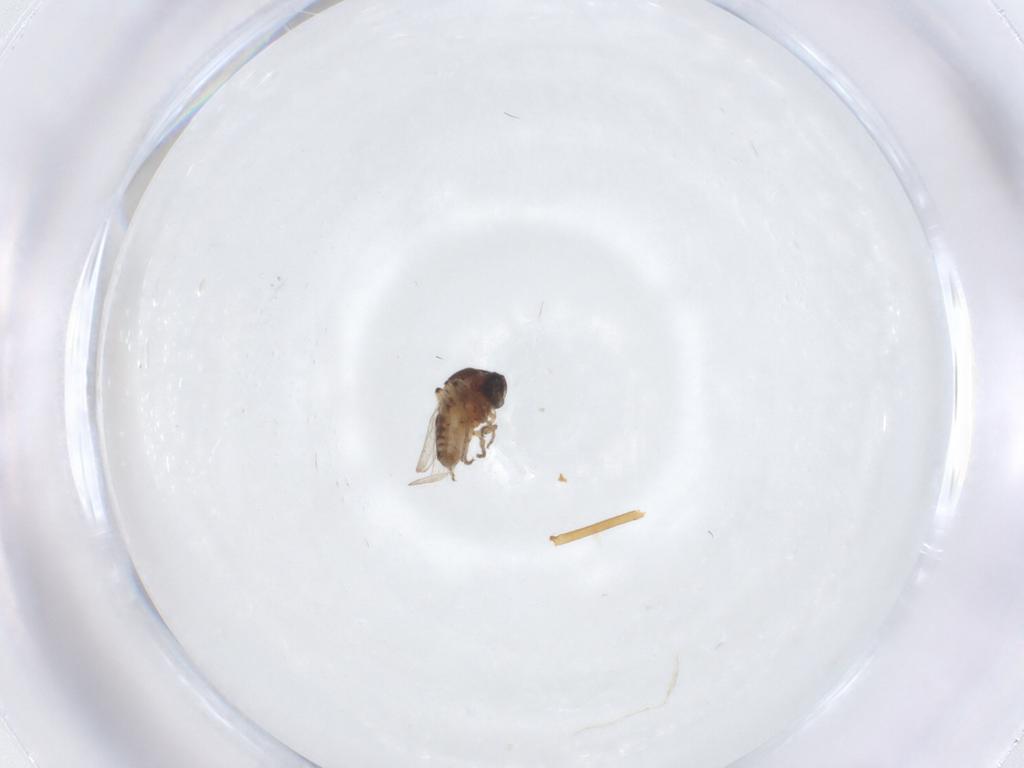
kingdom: Animalia
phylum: Arthropoda
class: Insecta
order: Diptera
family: Ceratopogonidae
